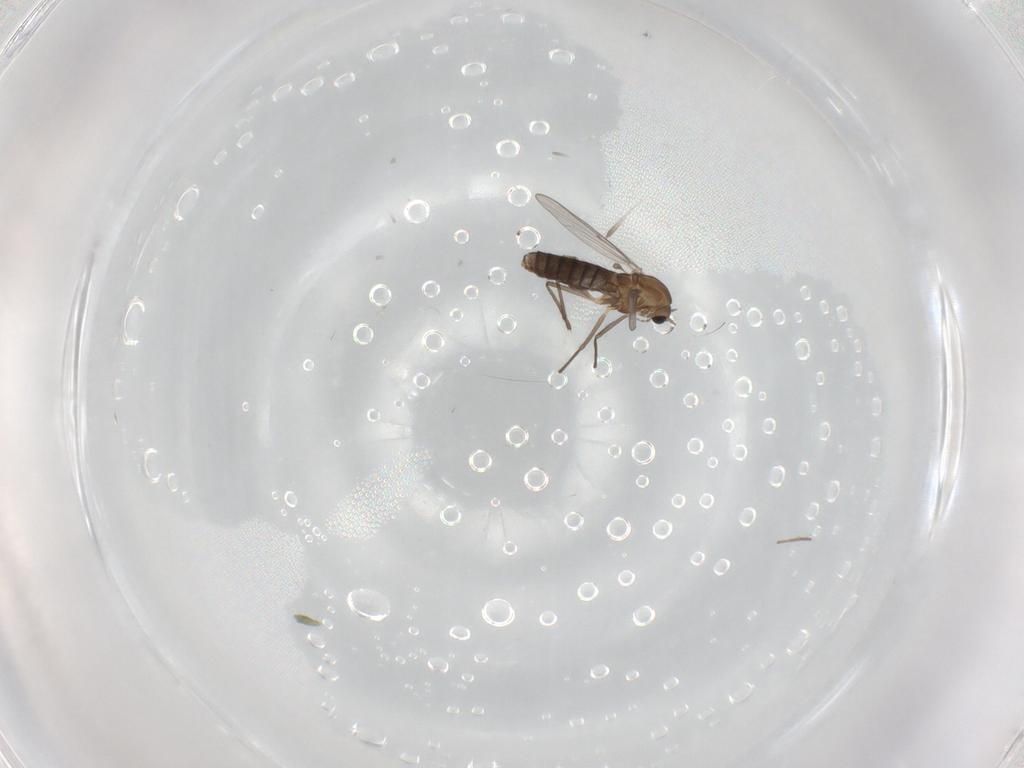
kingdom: Animalia
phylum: Arthropoda
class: Insecta
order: Diptera
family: Chironomidae
